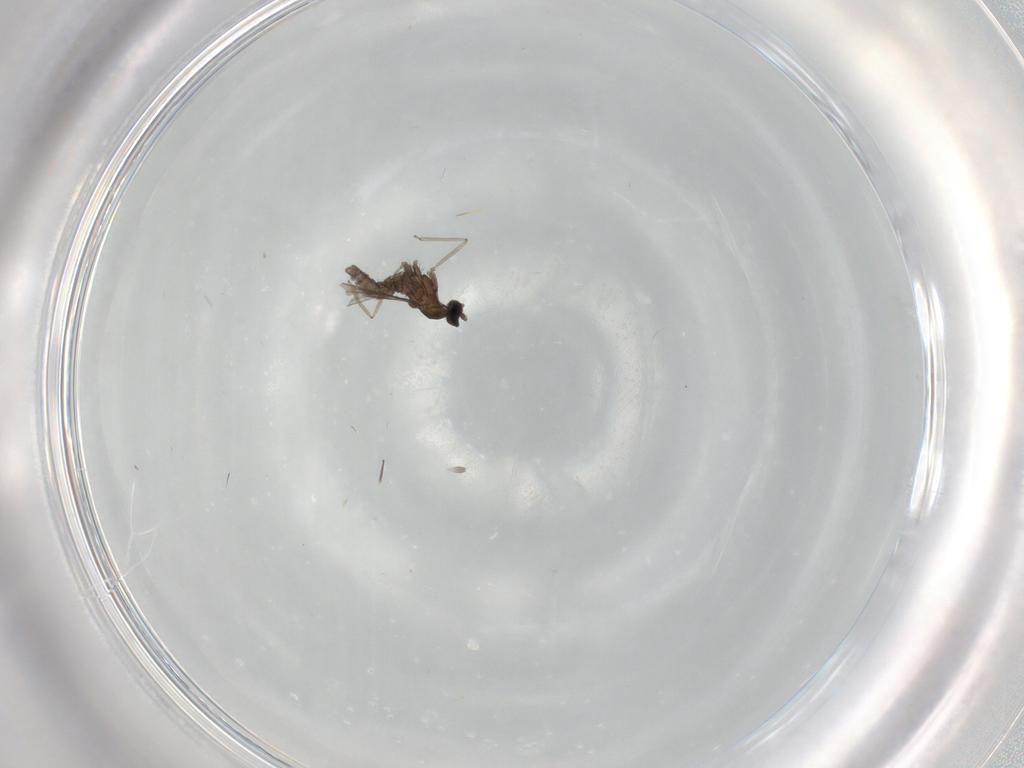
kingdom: Animalia
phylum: Arthropoda
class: Insecta
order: Diptera
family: Cecidomyiidae
